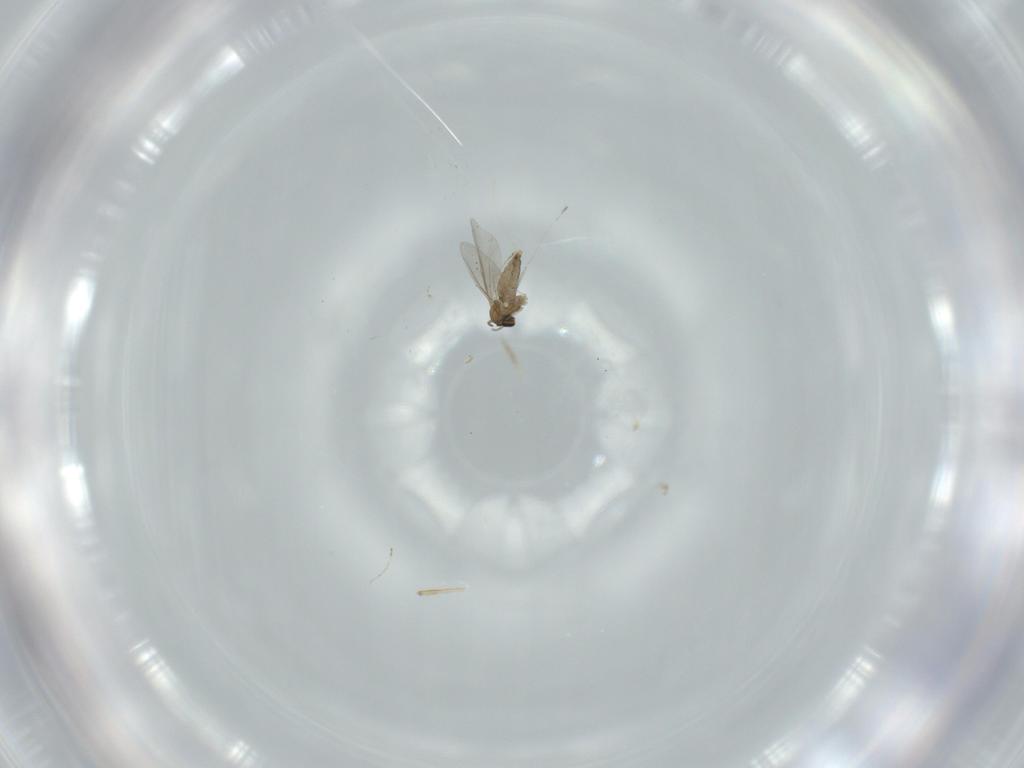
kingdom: Animalia
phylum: Arthropoda
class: Insecta
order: Diptera
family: Cecidomyiidae
